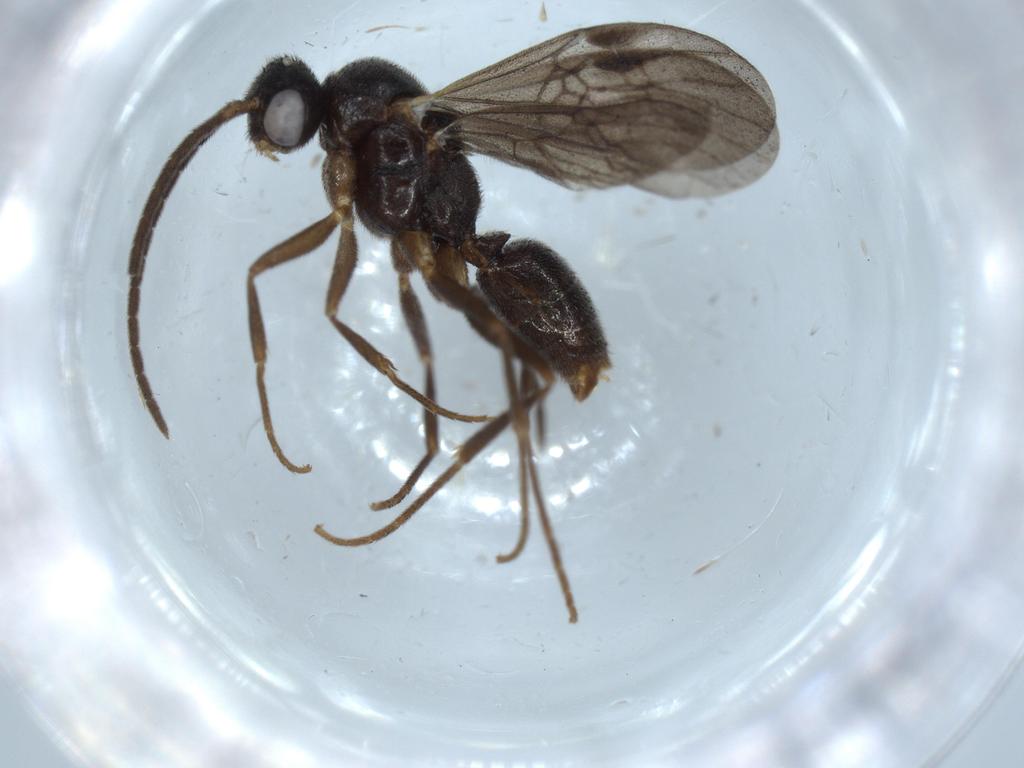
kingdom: Animalia
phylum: Arthropoda
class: Insecta
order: Hymenoptera
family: Formicidae
